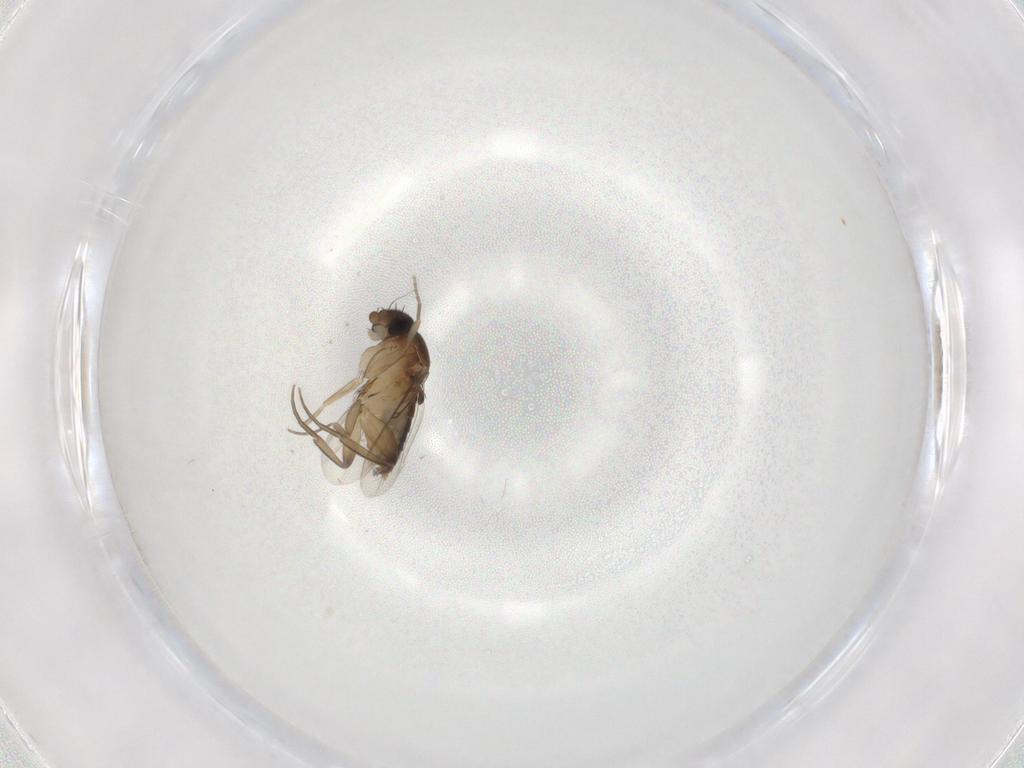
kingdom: Animalia
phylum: Arthropoda
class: Insecta
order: Diptera
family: Phoridae
